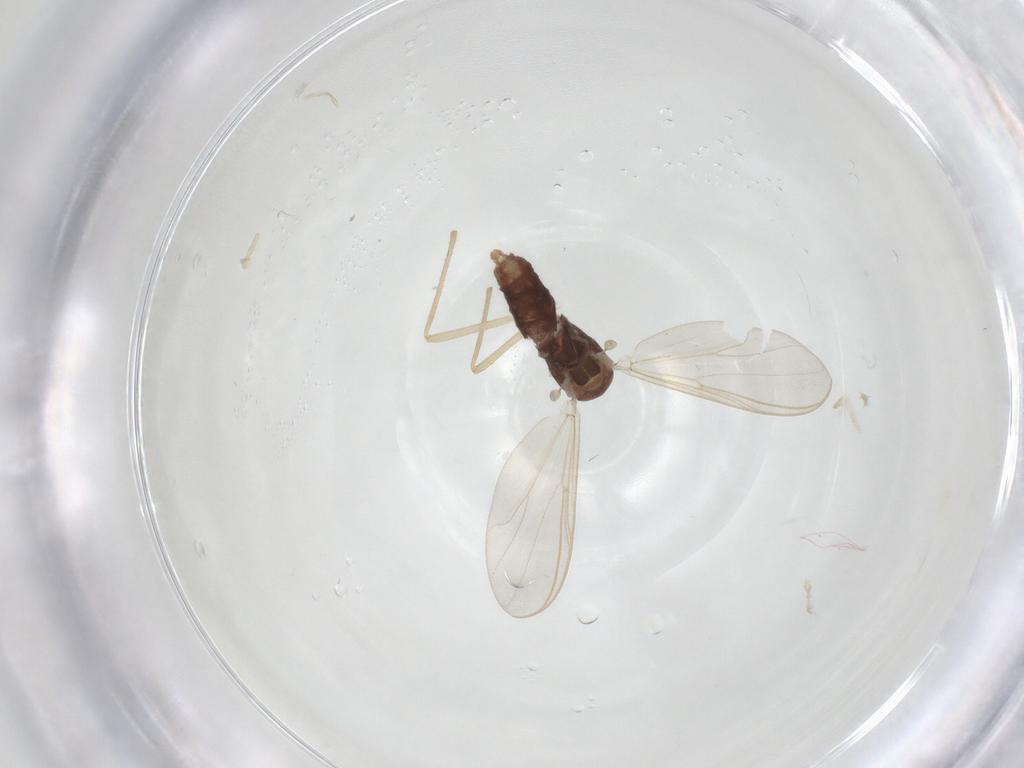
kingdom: Animalia
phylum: Arthropoda
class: Insecta
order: Diptera
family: Chironomidae
